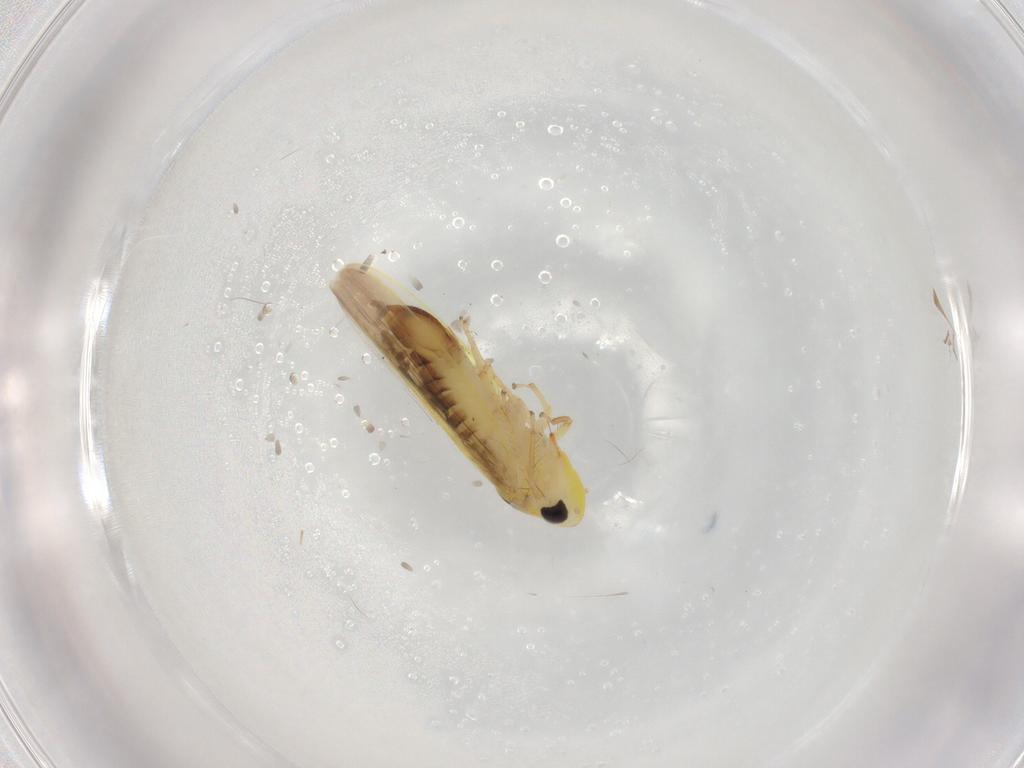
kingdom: Animalia
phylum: Arthropoda
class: Insecta
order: Hemiptera
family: Cicadellidae
